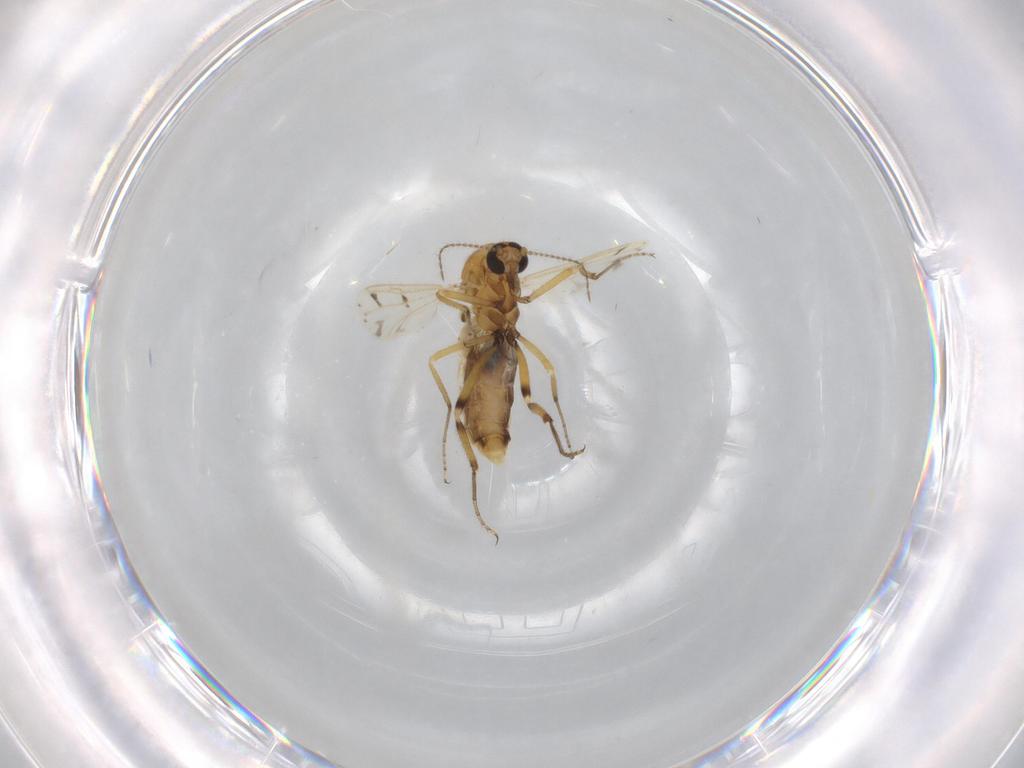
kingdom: Animalia
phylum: Arthropoda
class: Insecta
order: Diptera
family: Ceratopogonidae
